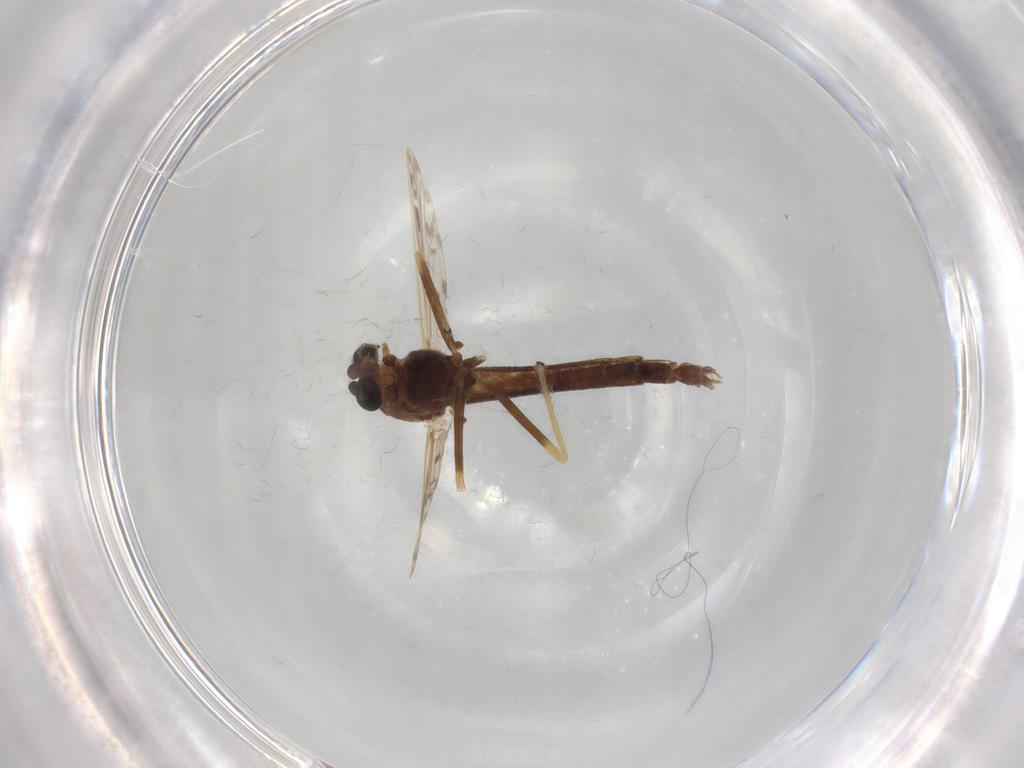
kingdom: Animalia
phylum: Arthropoda
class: Insecta
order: Diptera
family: Chironomidae
